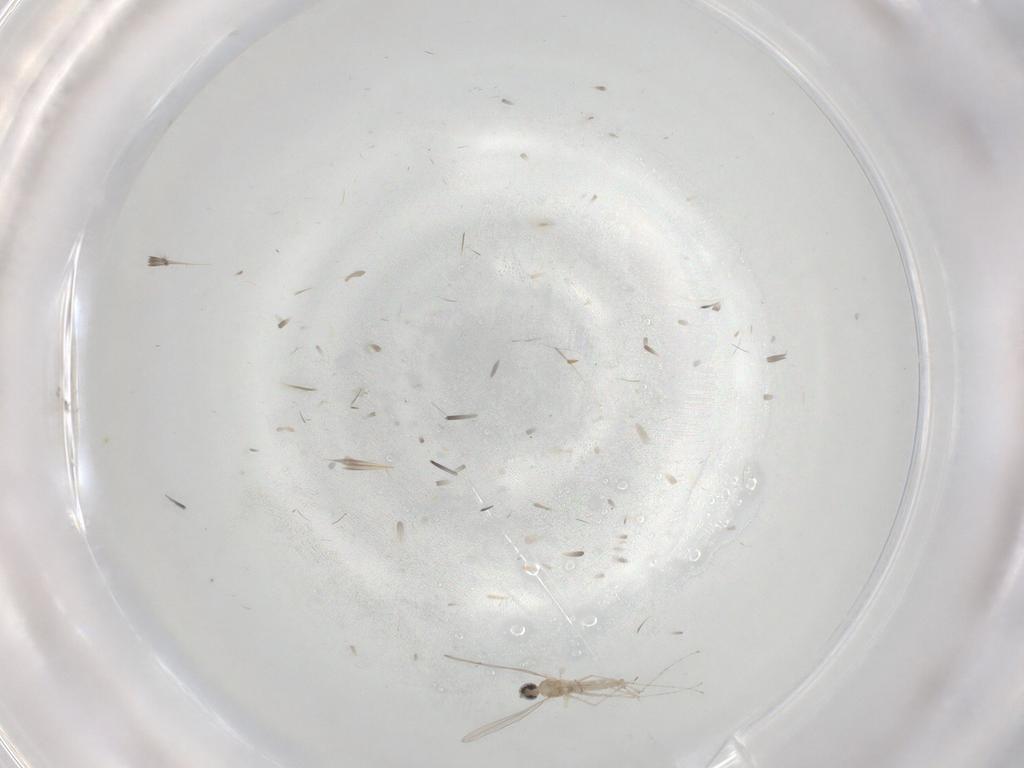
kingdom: Animalia
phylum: Arthropoda
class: Insecta
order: Diptera
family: Cecidomyiidae
